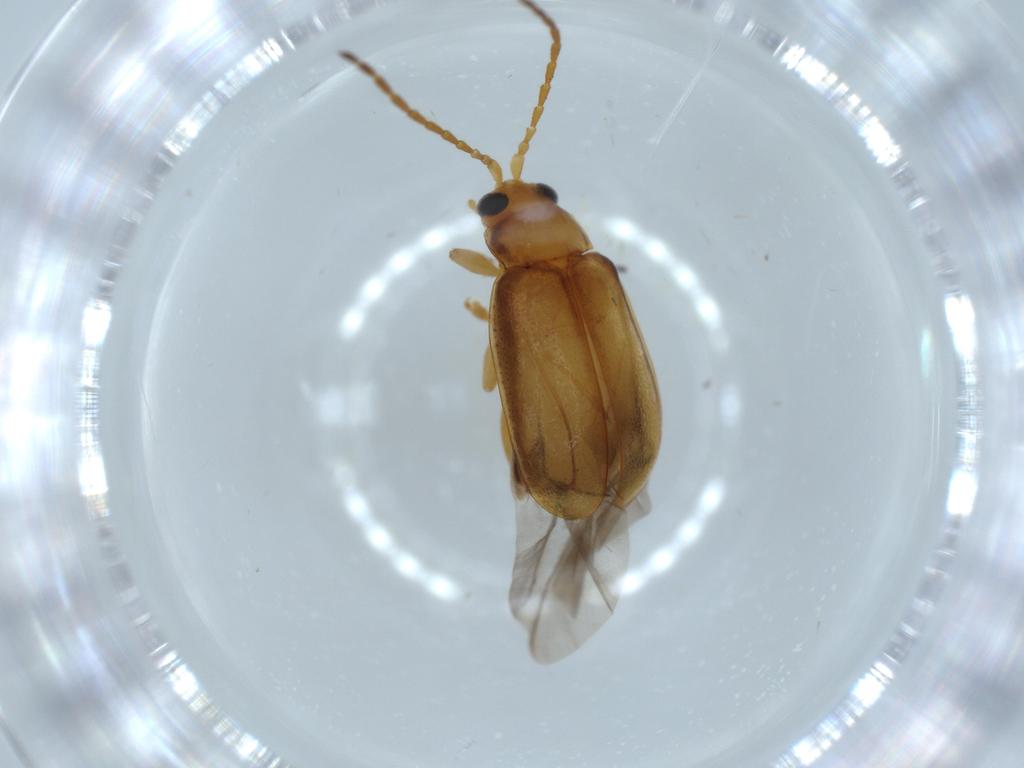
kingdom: Animalia
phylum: Arthropoda
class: Insecta
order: Coleoptera
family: Chrysomelidae
